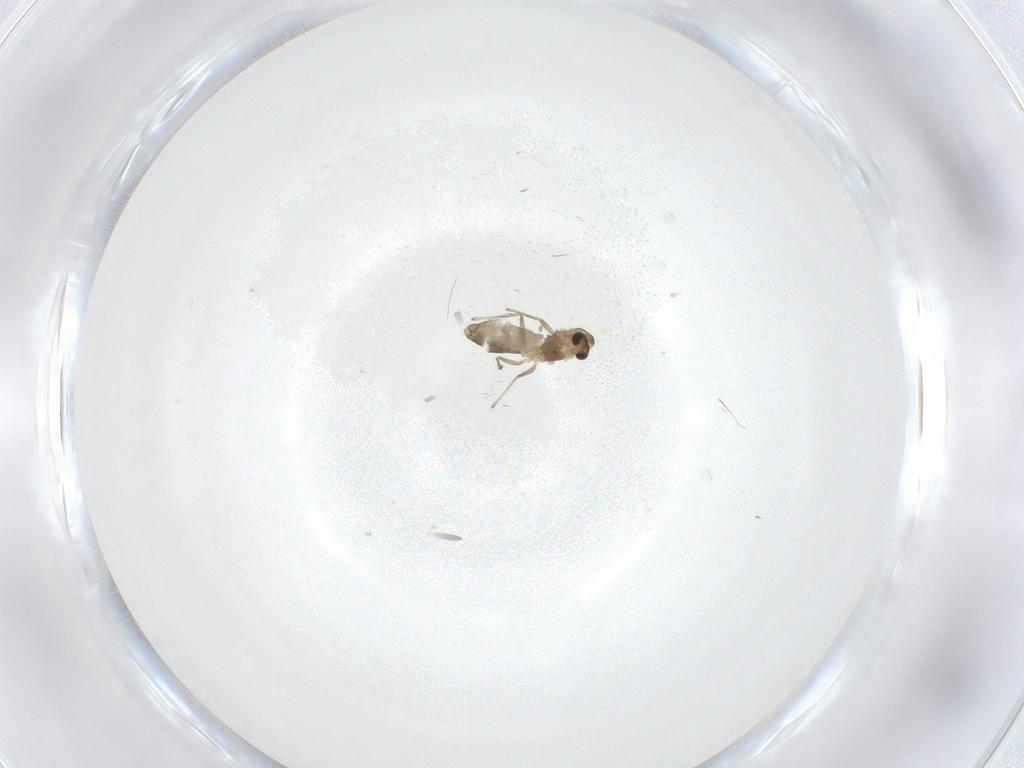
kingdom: Animalia
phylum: Arthropoda
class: Insecta
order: Diptera
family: Chironomidae
